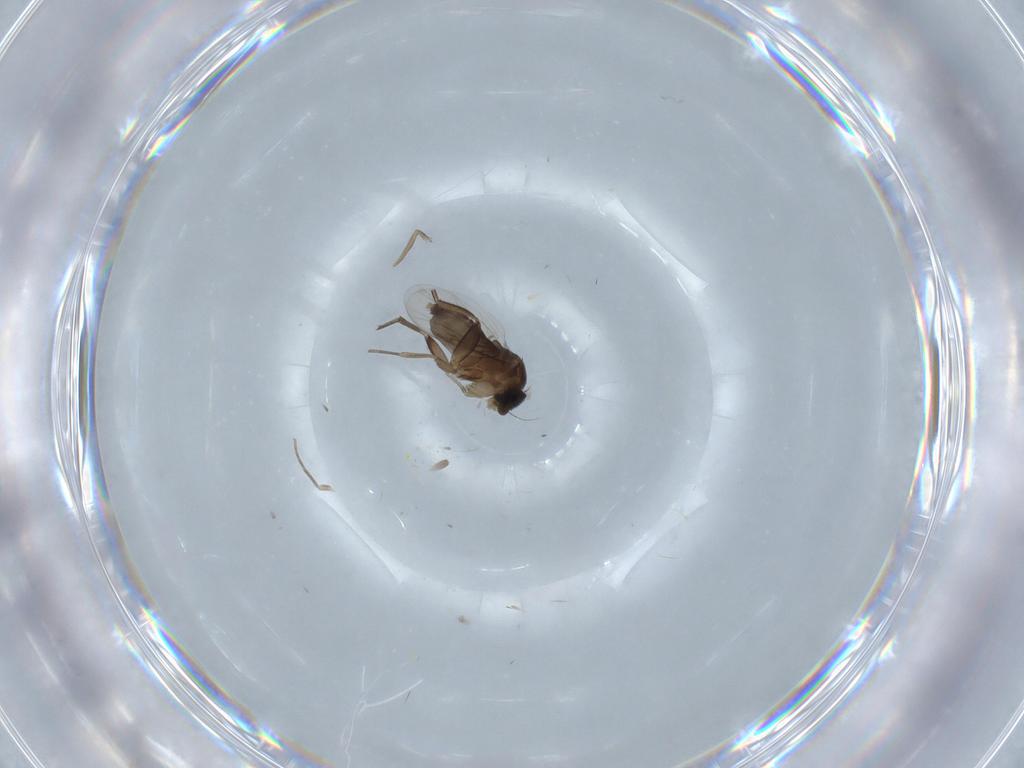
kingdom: Animalia
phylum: Arthropoda
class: Insecta
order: Diptera
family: Phoridae
